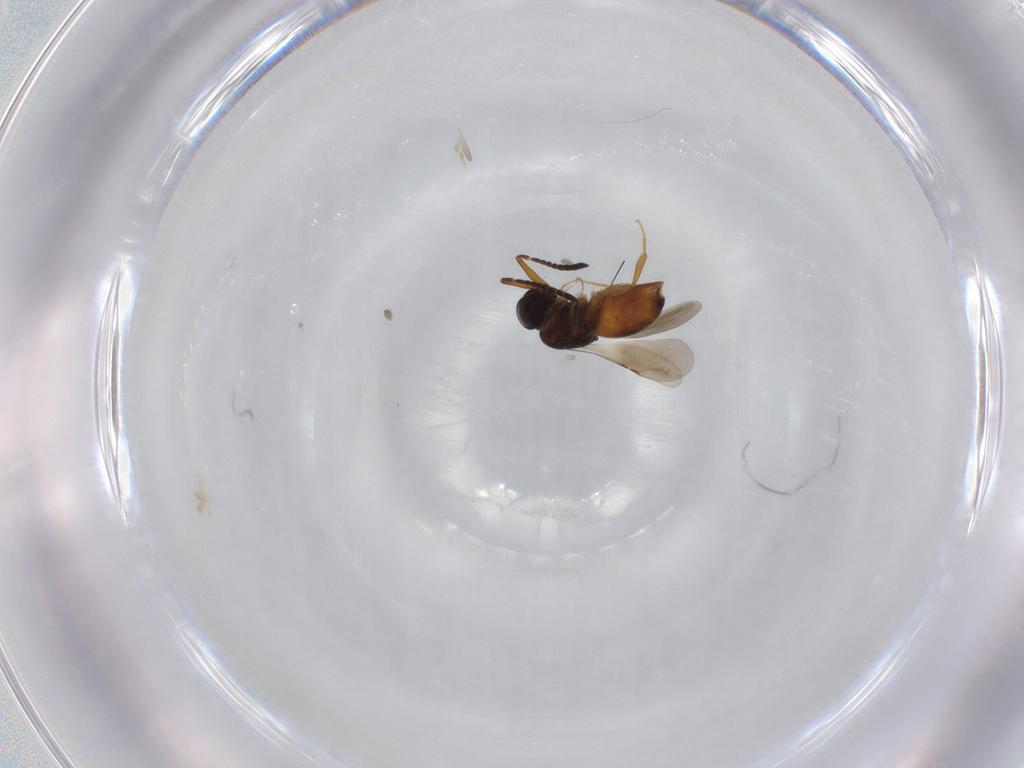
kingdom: Animalia
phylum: Arthropoda
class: Insecta
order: Hymenoptera
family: Ceraphronidae
